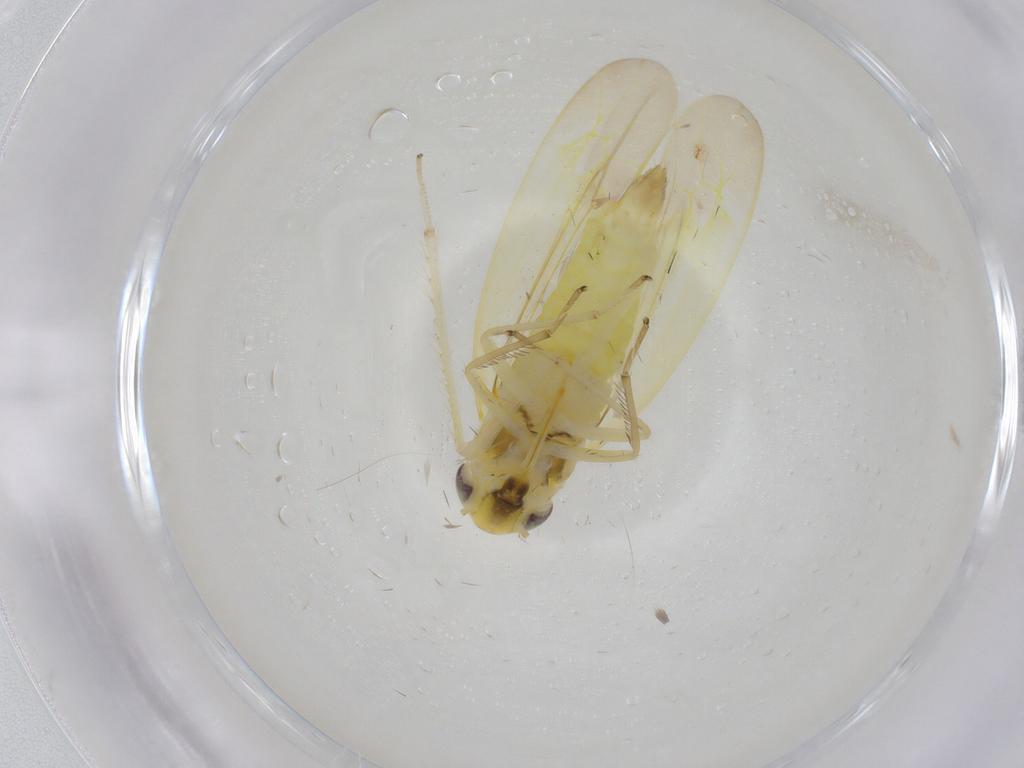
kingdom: Animalia
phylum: Arthropoda
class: Insecta
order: Hemiptera
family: Cicadellidae
